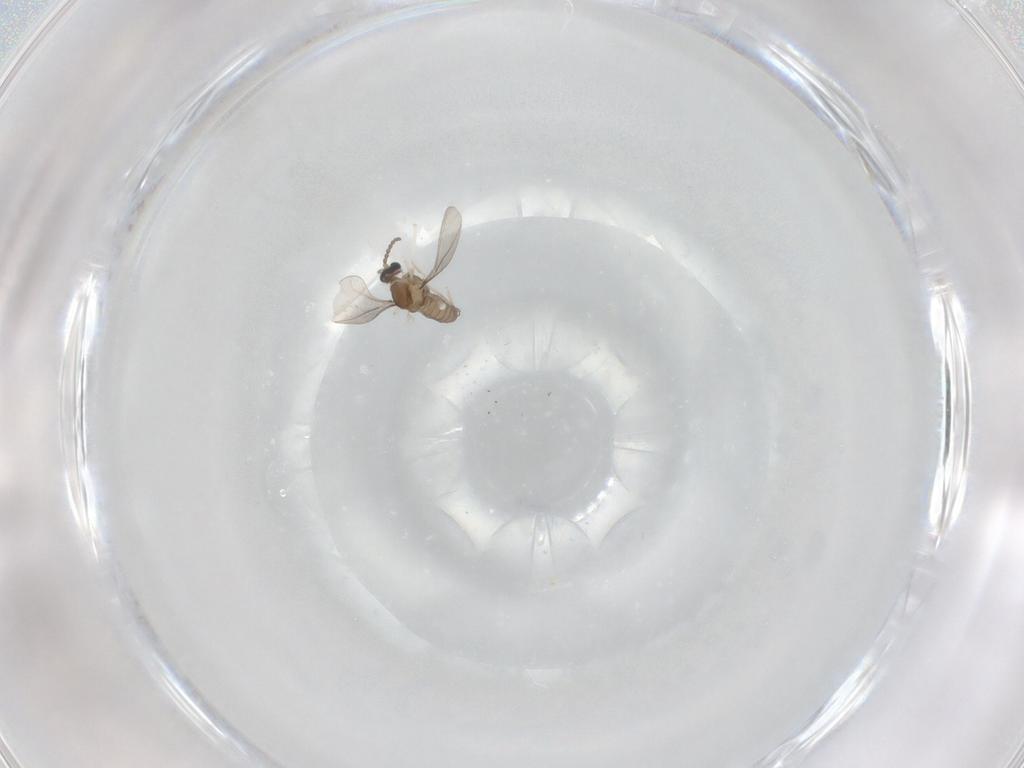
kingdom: Animalia
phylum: Arthropoda
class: Insecta
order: Diptera
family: Cecidomyiidae
